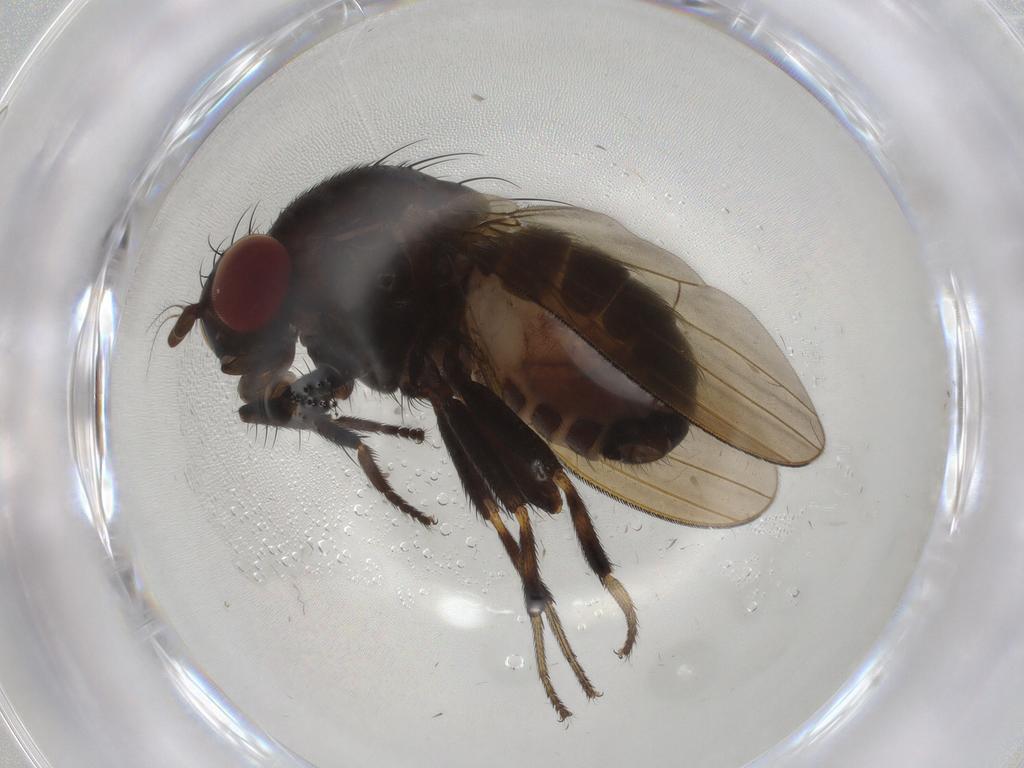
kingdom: Animalia
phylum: Arthropoda
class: Insecta
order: Diptera
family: Lauxaniidae
